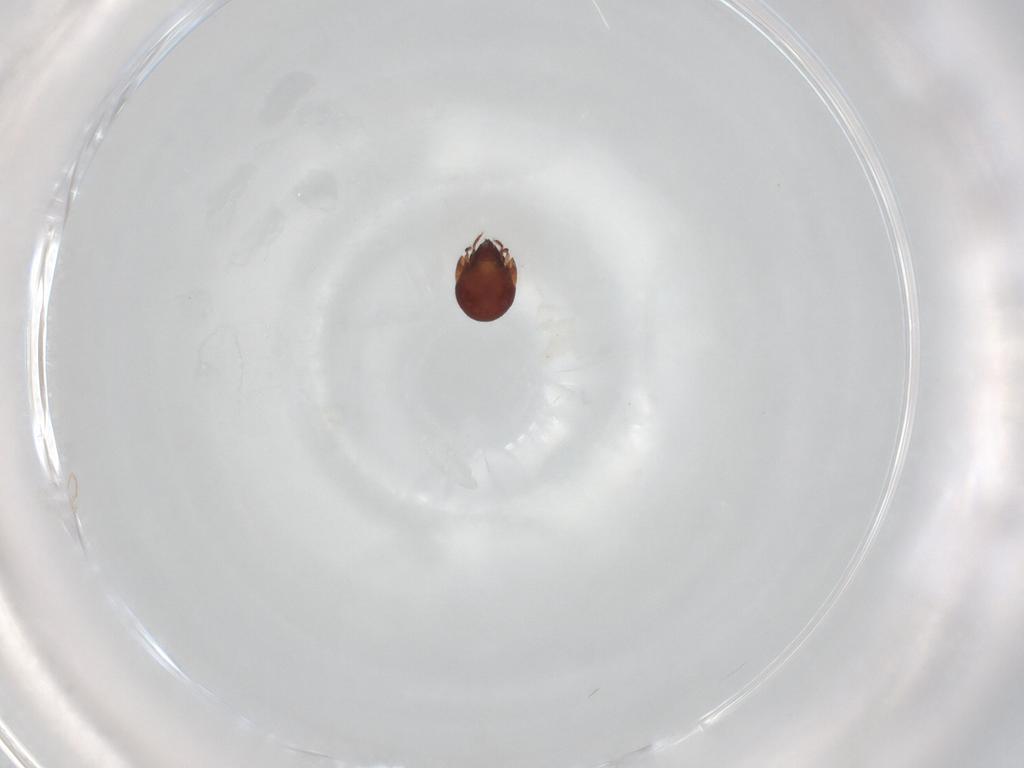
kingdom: Animalia
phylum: Arthropoda
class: Arachnida
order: Sarcoptiformes
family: Humerobatidae
